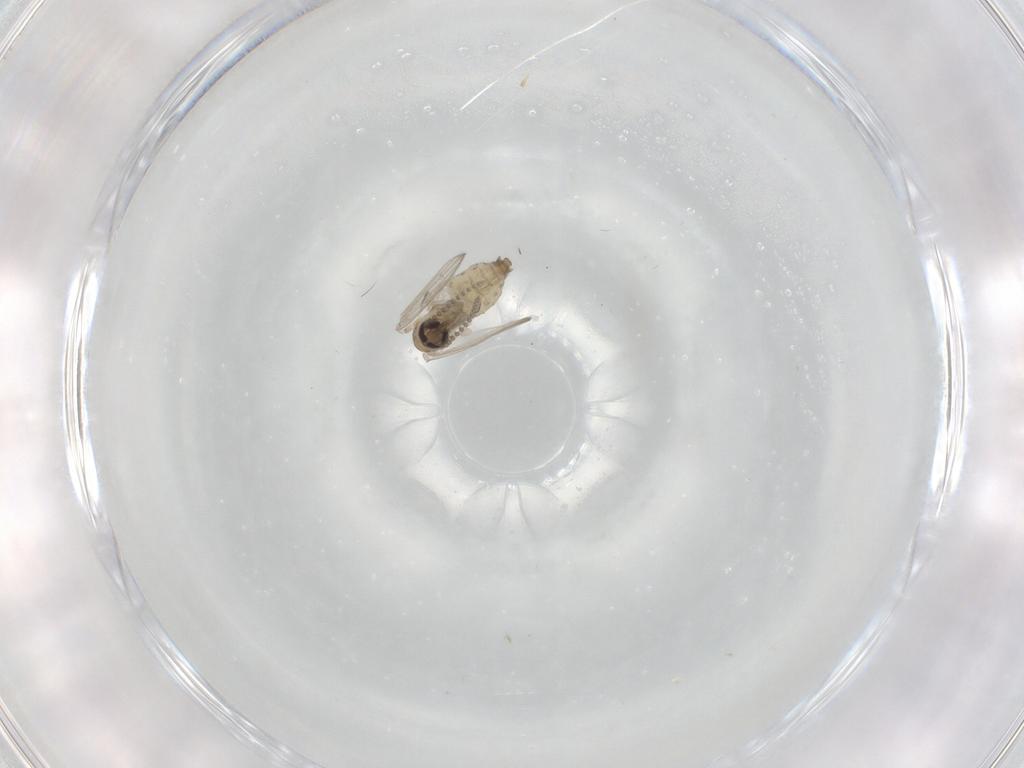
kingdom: Animalia
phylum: Arthropoda
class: Insecta
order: Diptera
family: Psychodidae
